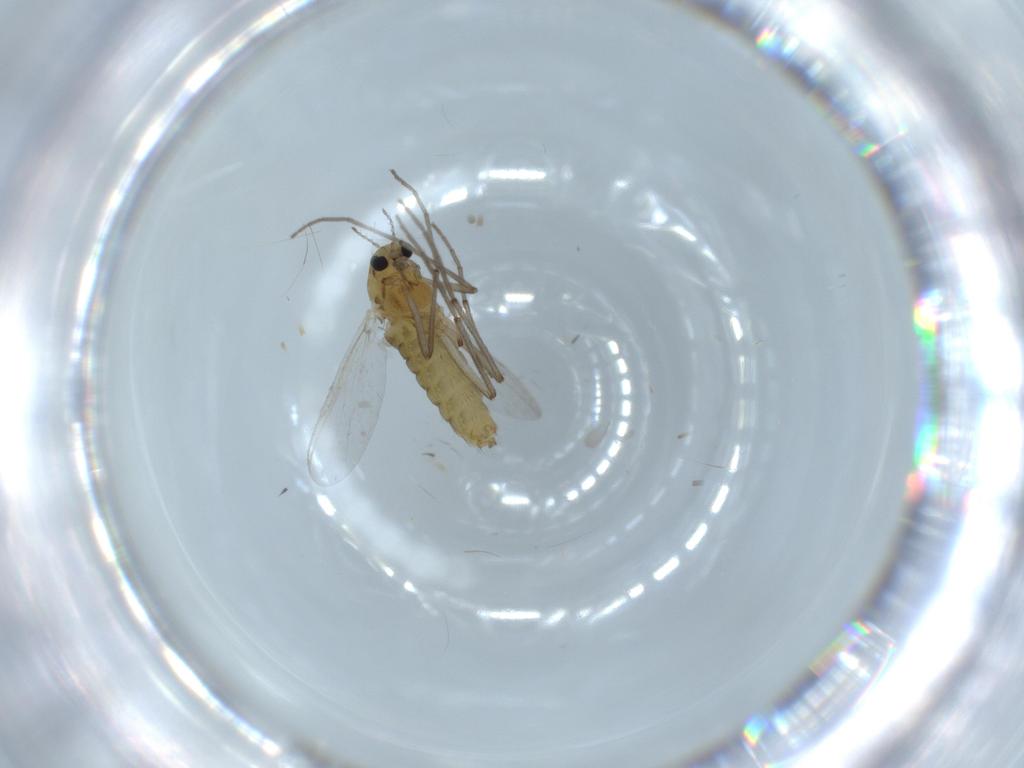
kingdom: Animalia
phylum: Arthropoda
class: Insecta
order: Diptera
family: Chironomidae
